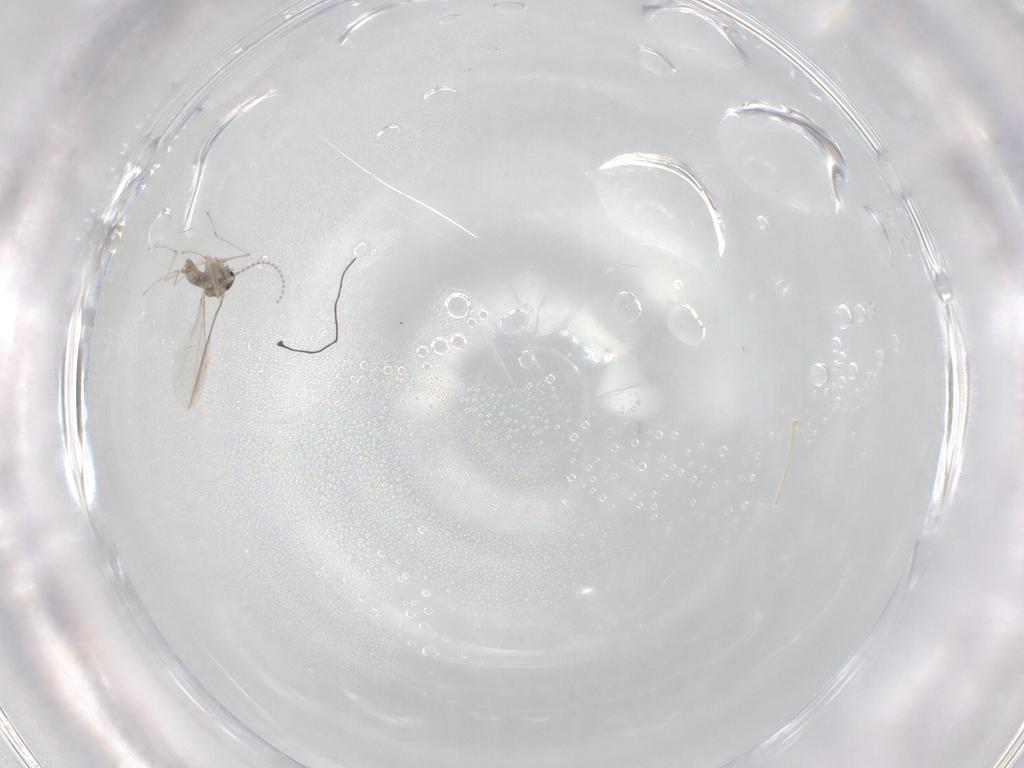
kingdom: Animalia
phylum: Arthropoda
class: Insecta
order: Diptera
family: Cecidomyiidae
